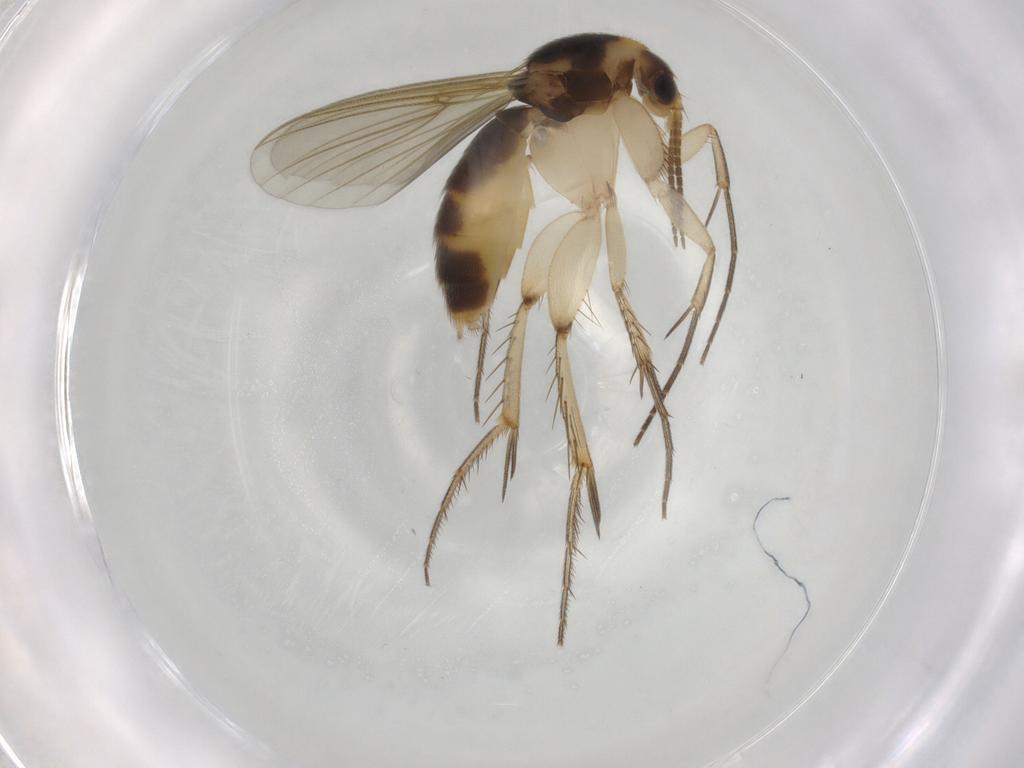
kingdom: Animalia
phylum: Arthropoda
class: Insecta
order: Diptera
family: Mycetophilidae
